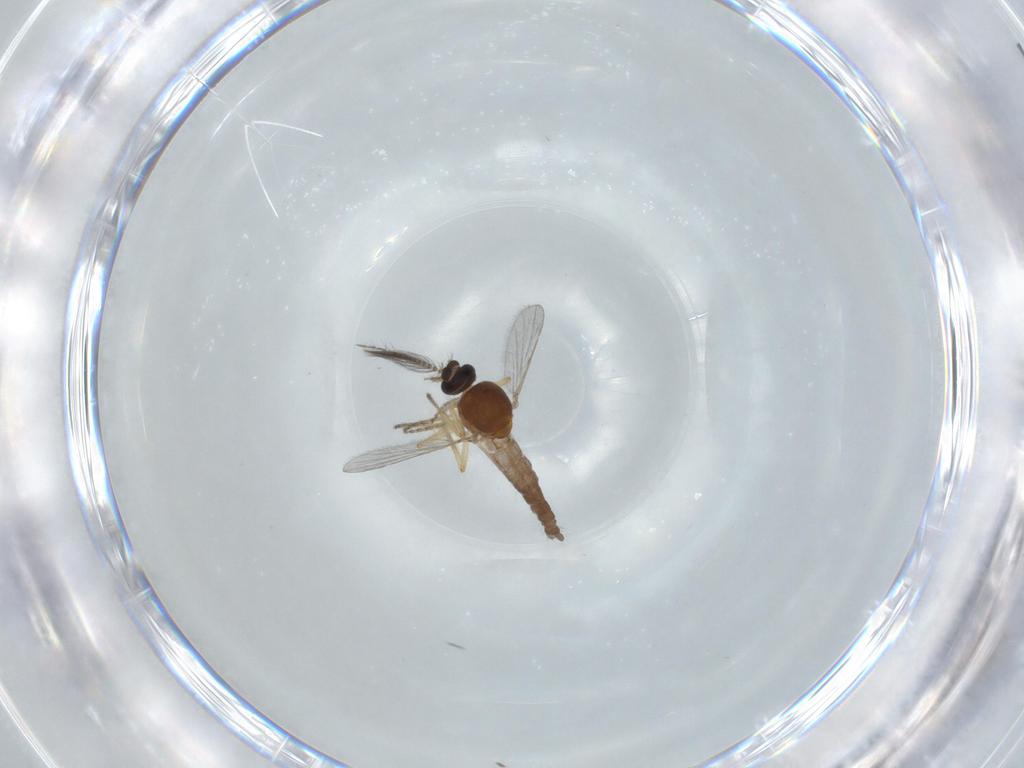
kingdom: Animalia
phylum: Arthropoda
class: Insecta
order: Diptera
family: Ceratopogonidae
